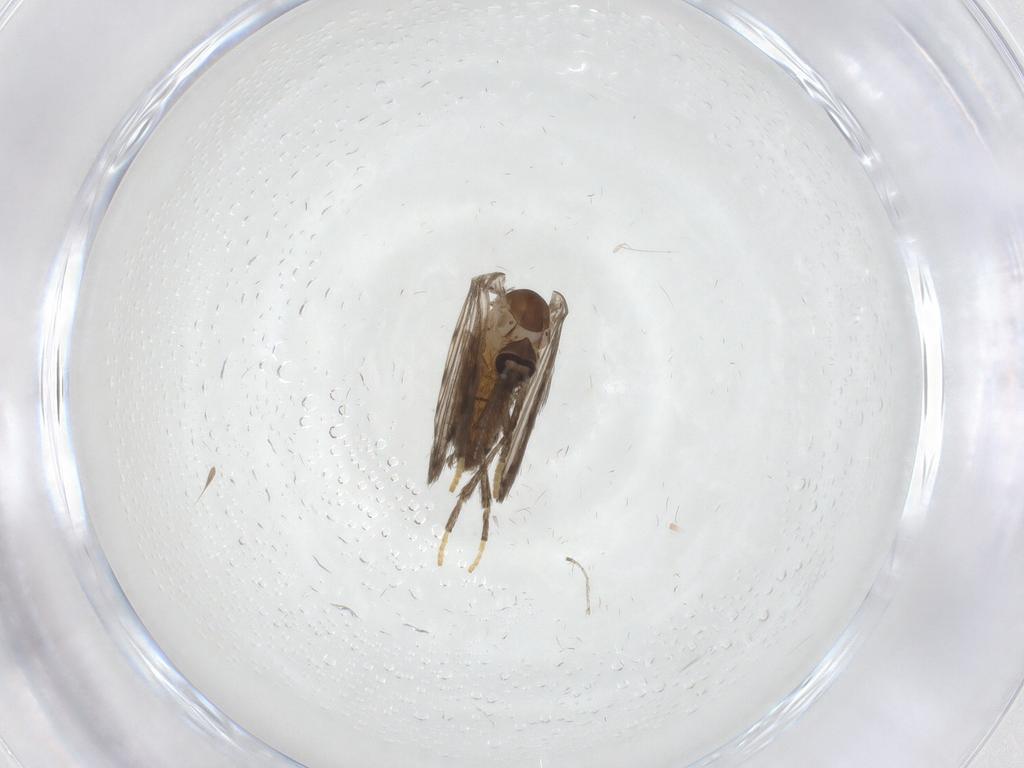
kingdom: Animalia
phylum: Arthropoda
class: Insecta
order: Diptera
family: Psychodidae
